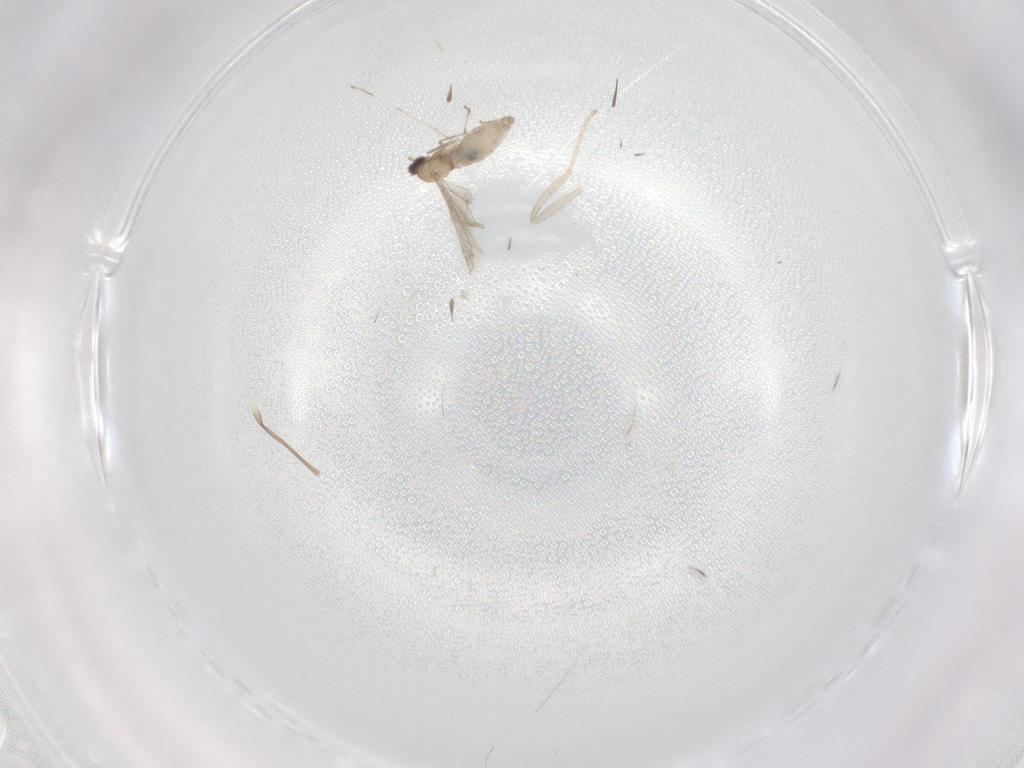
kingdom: Animalia
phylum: Arthropoda
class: Insecta
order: Diptera
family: Cecidomyiidae
